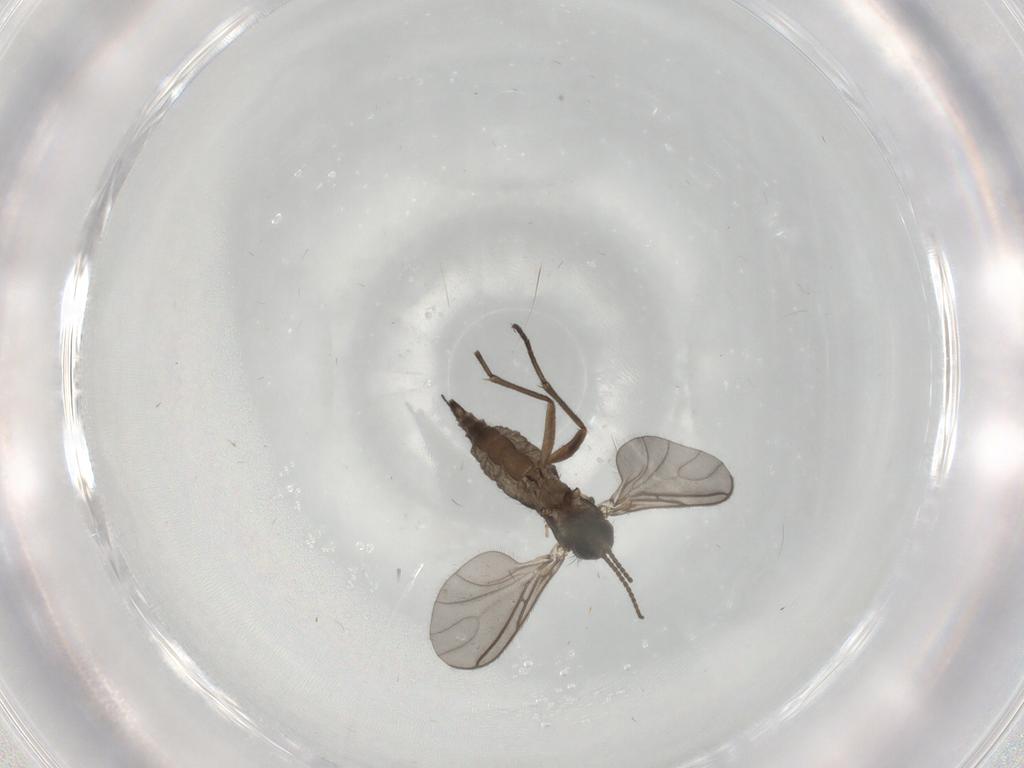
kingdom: Animalia
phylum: Arthropoda
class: Insecta
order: Diptera
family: Sciaridae
